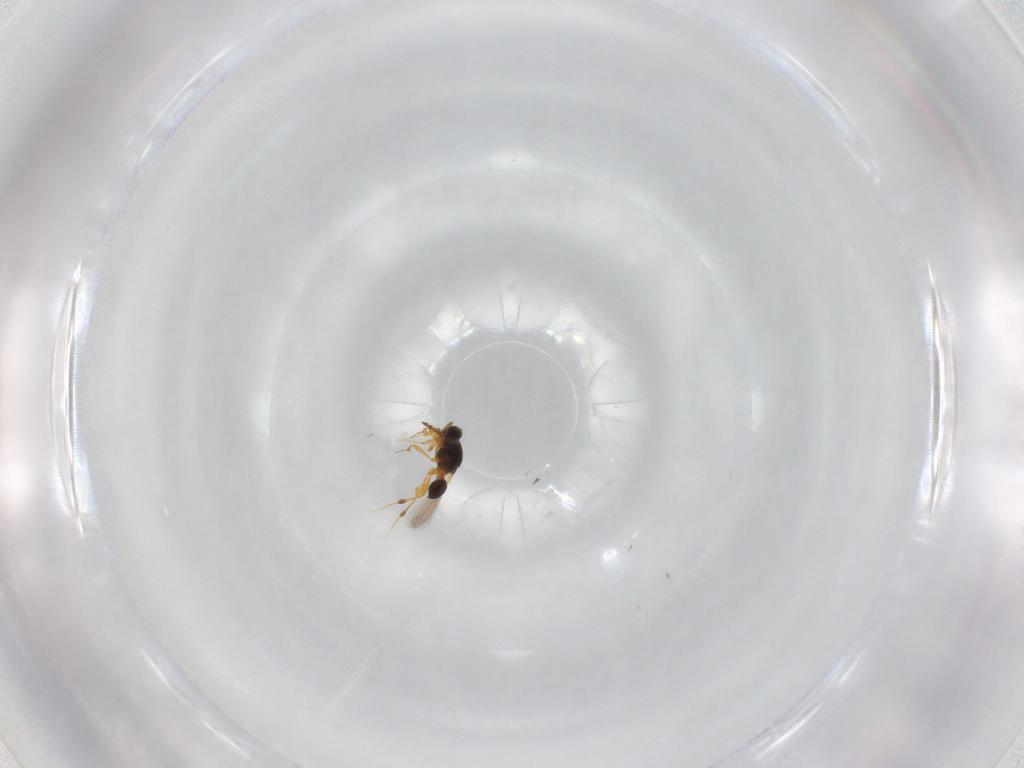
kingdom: Animalia
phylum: Arthropoda
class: Insecta
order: Hymenoptera
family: Platygastridae
